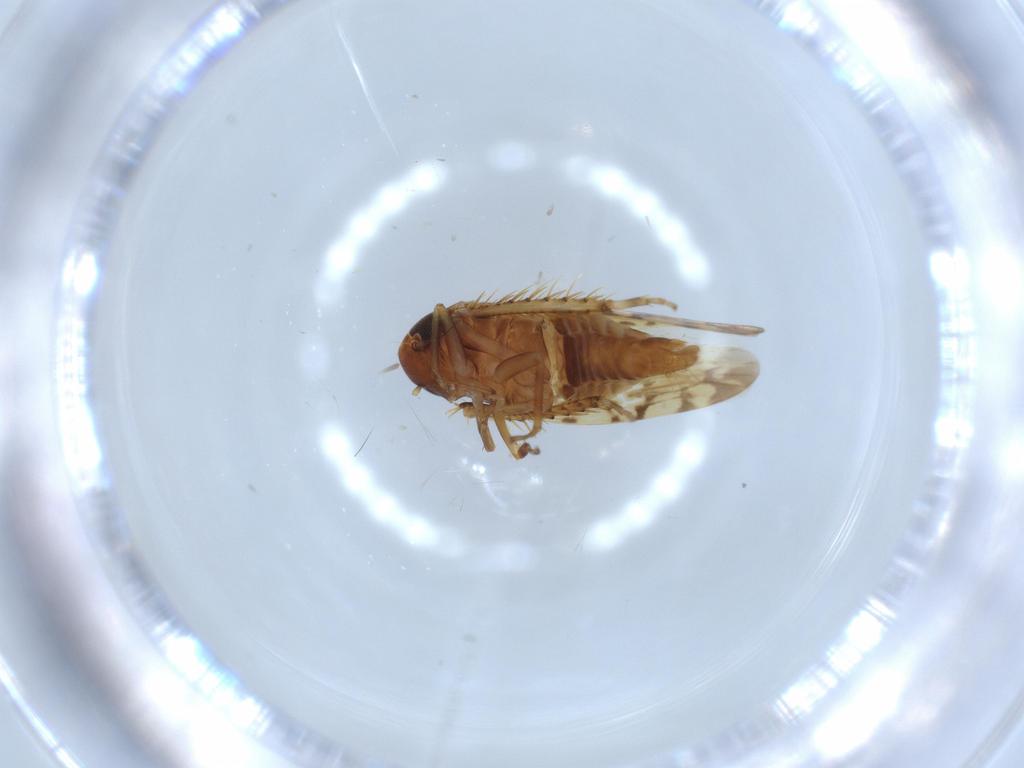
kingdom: Animalia
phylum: Arthropoda
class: Insecta
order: Hemiptera
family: Cicadellidae
